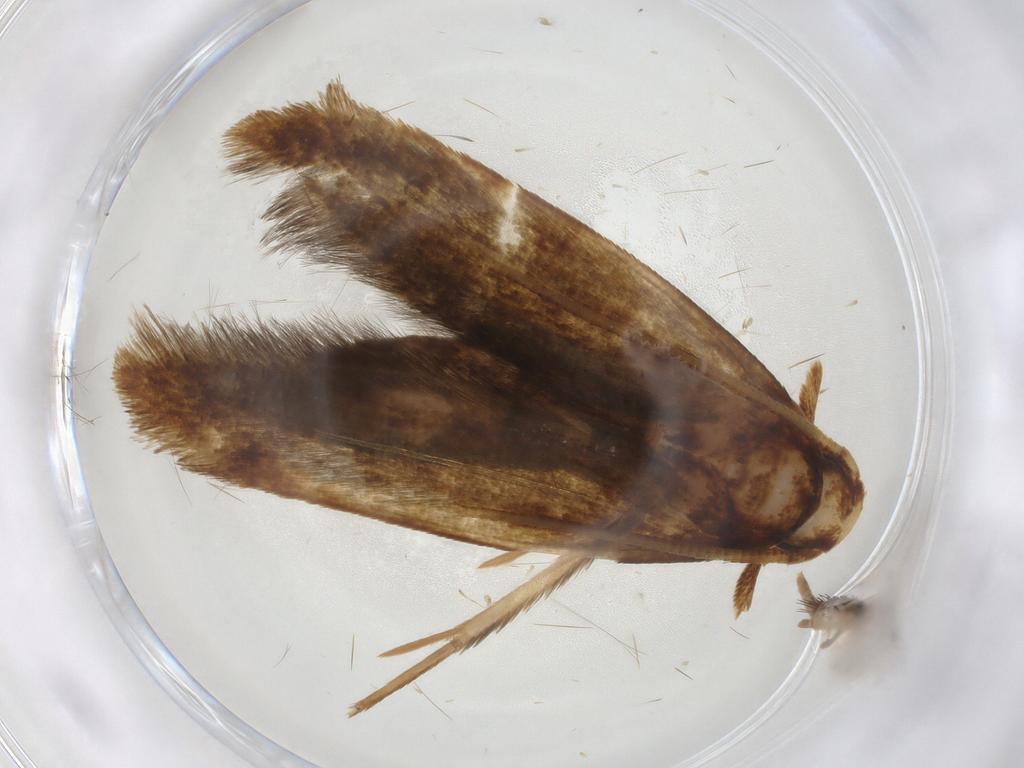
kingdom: Animalia
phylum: Arthropoda
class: Insecta
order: Lepidoptera
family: Tineidae
